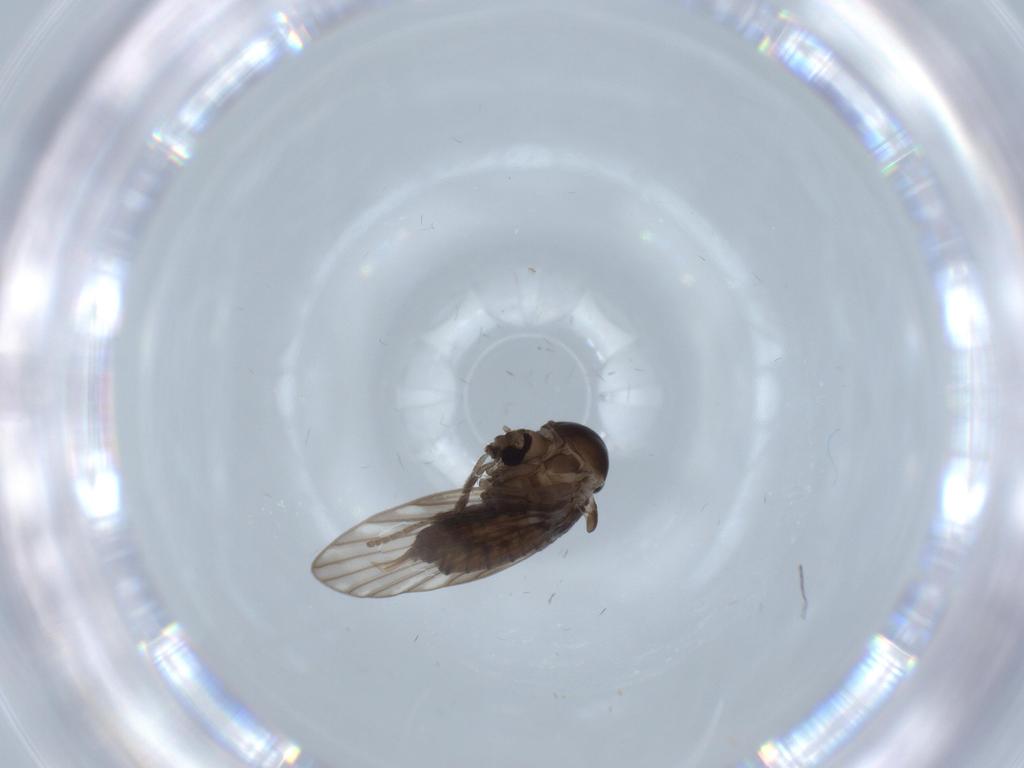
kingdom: Animalia
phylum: Arthropoda
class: Insecta
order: Diptera
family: Psychodidae
